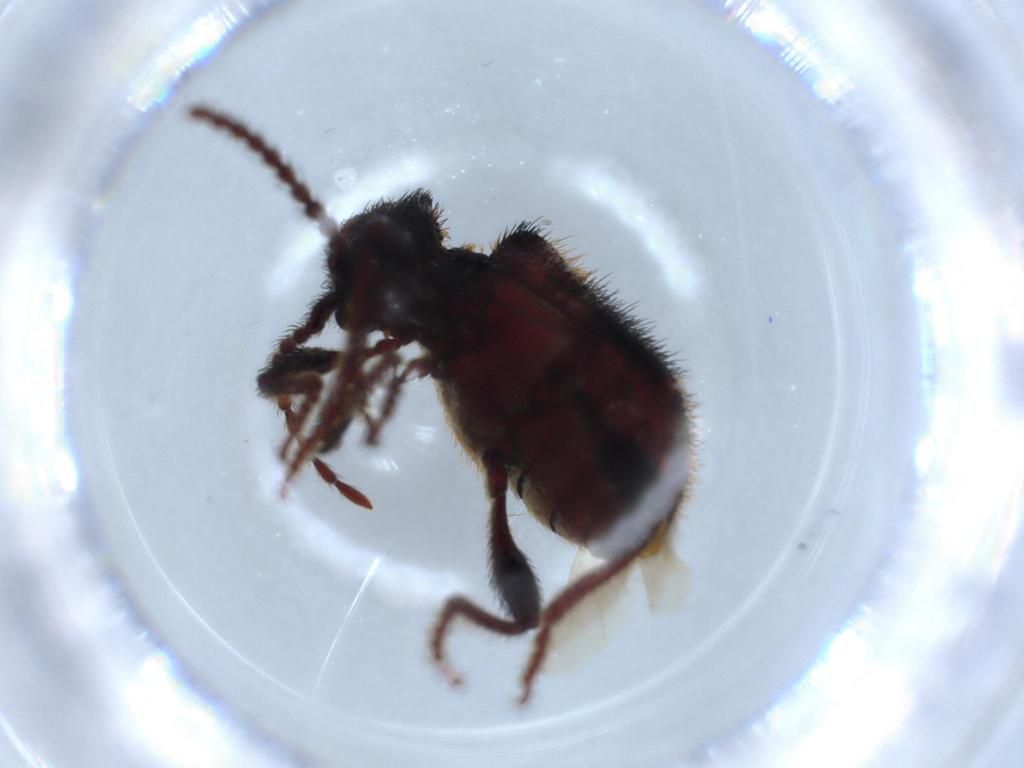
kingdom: Animalia
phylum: Arthropoda
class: Insecta
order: Coleoptera
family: Ptinidae
